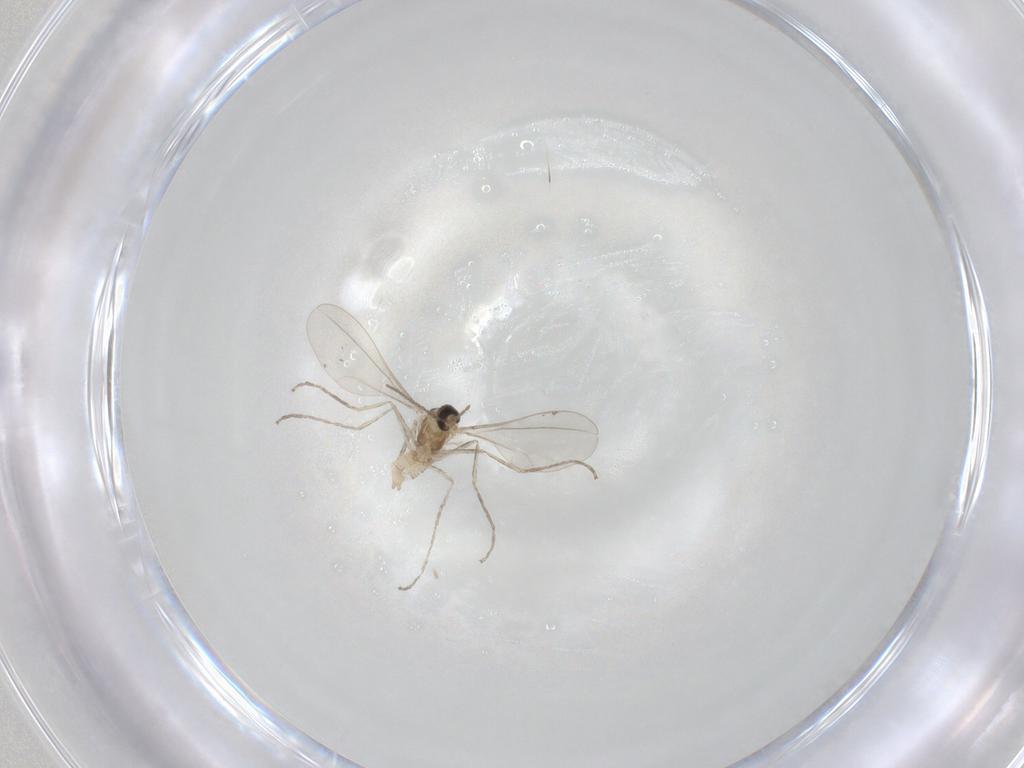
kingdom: Animalia
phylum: Arthropoda
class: Insecta
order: Diptera
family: Cecidomyiidae
